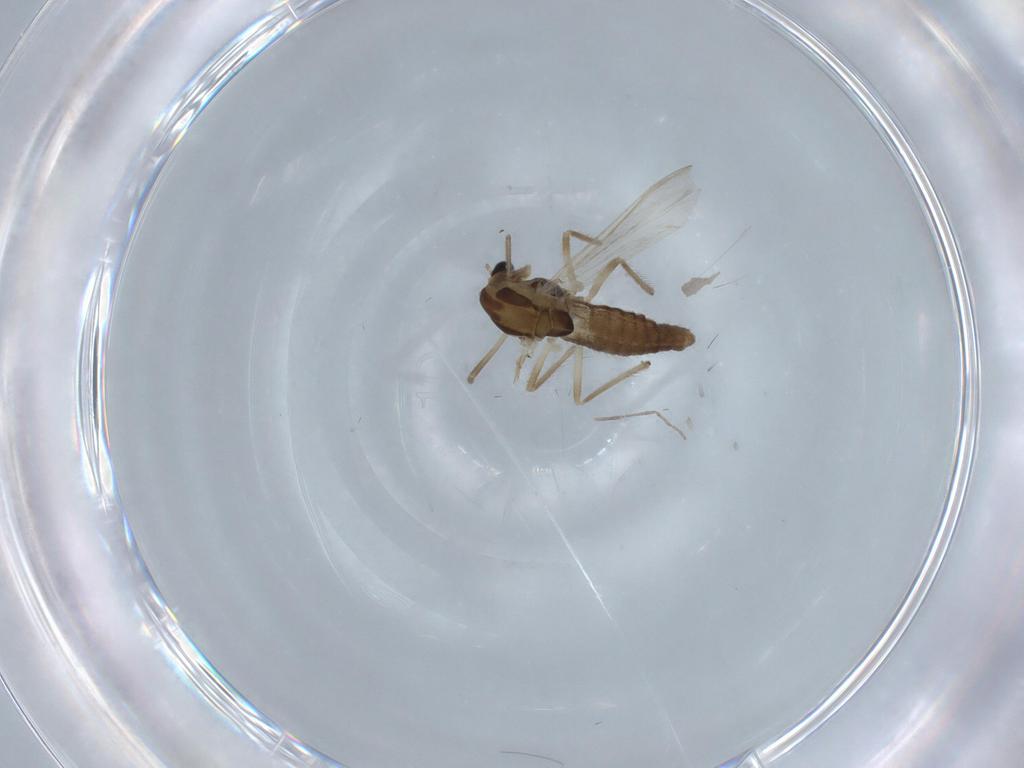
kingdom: Animalia
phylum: Arthropoda
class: Insecta
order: Diptera
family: Chironomidae
